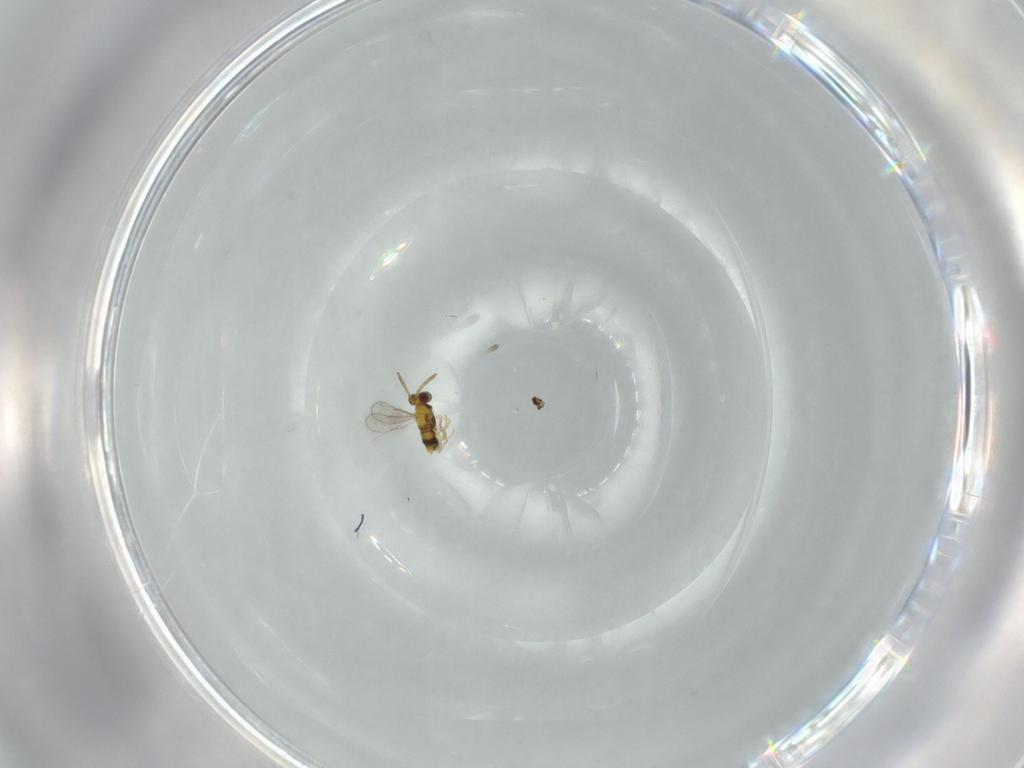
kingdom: Animalia
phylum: Arthropoda
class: Insecta
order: Hymenoptera
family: Aphelinidae
